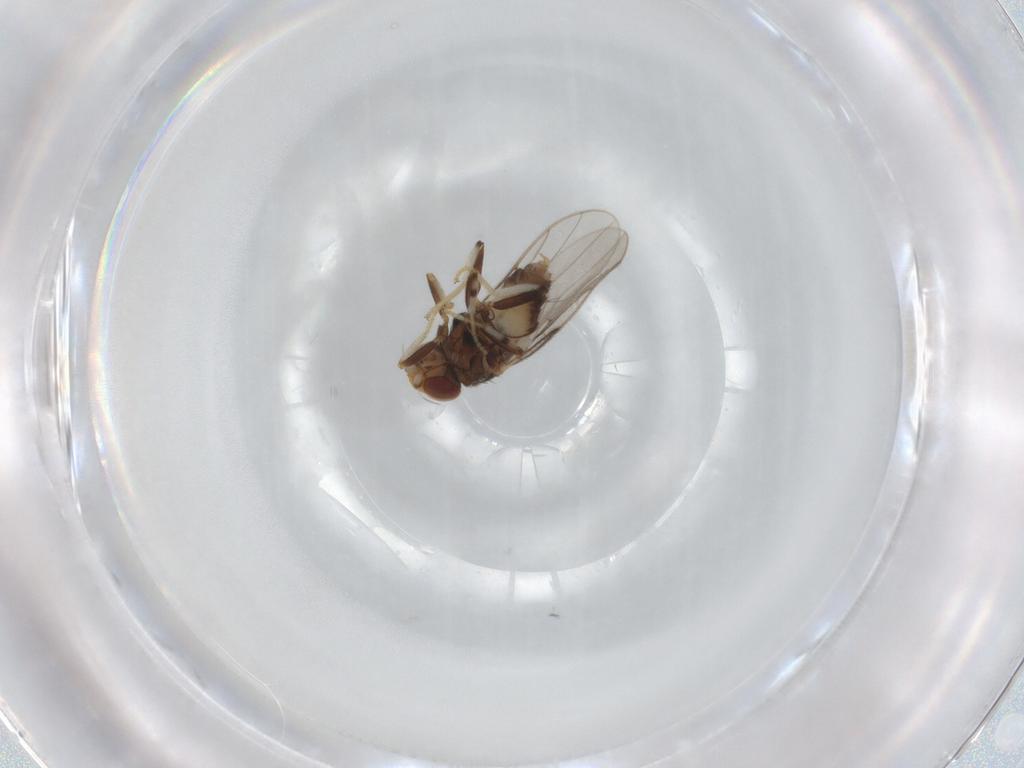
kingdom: Animalia
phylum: Arthropoda
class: Insecta
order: Diptera
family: Chloropidae
